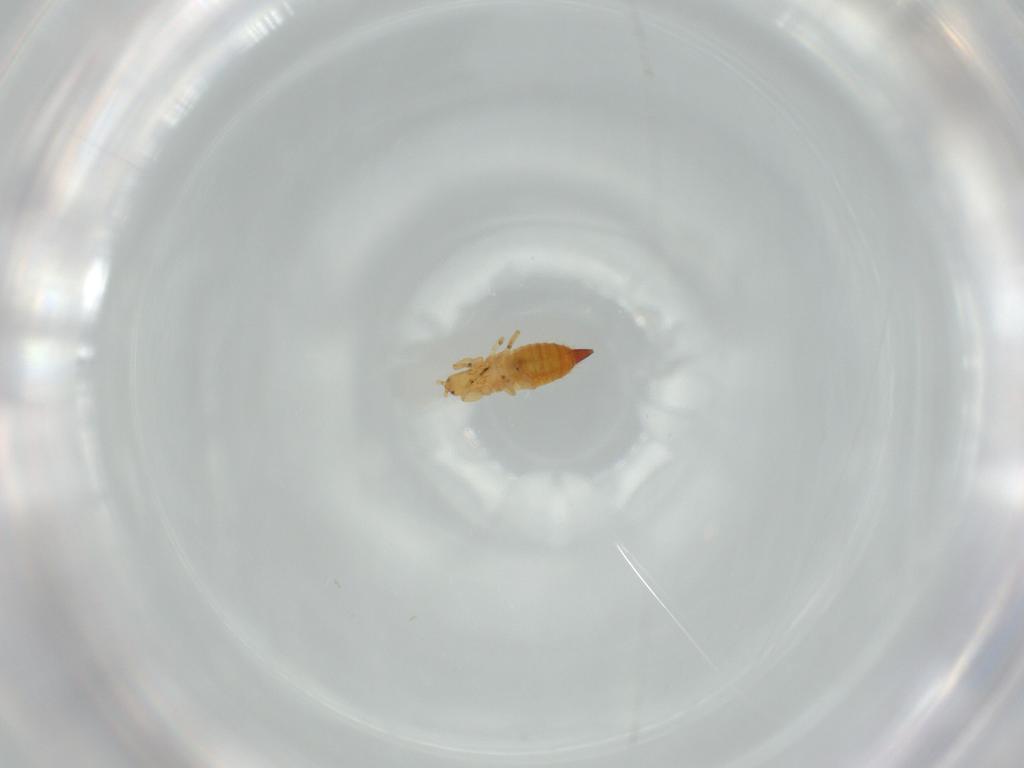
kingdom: Animalia
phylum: Arthropoda
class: Insecta
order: Thysanoptera
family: Phlaeothripidae
